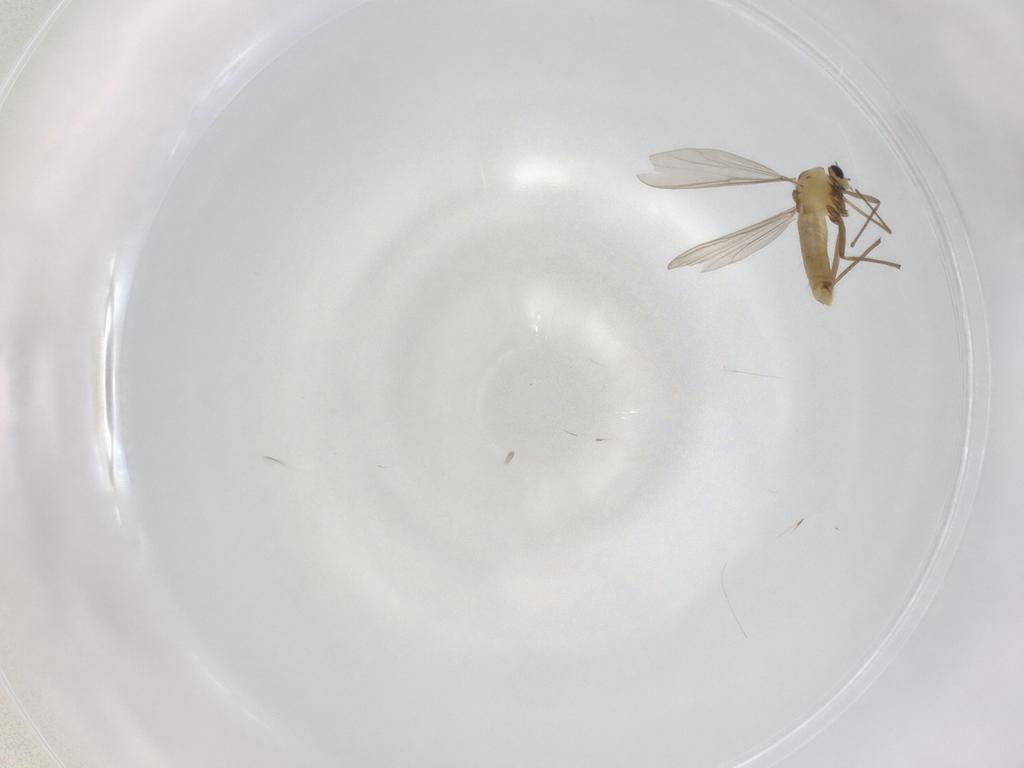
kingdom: Animalia
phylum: Arthropoda
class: Insecta
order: Diptera
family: Chironomidae
